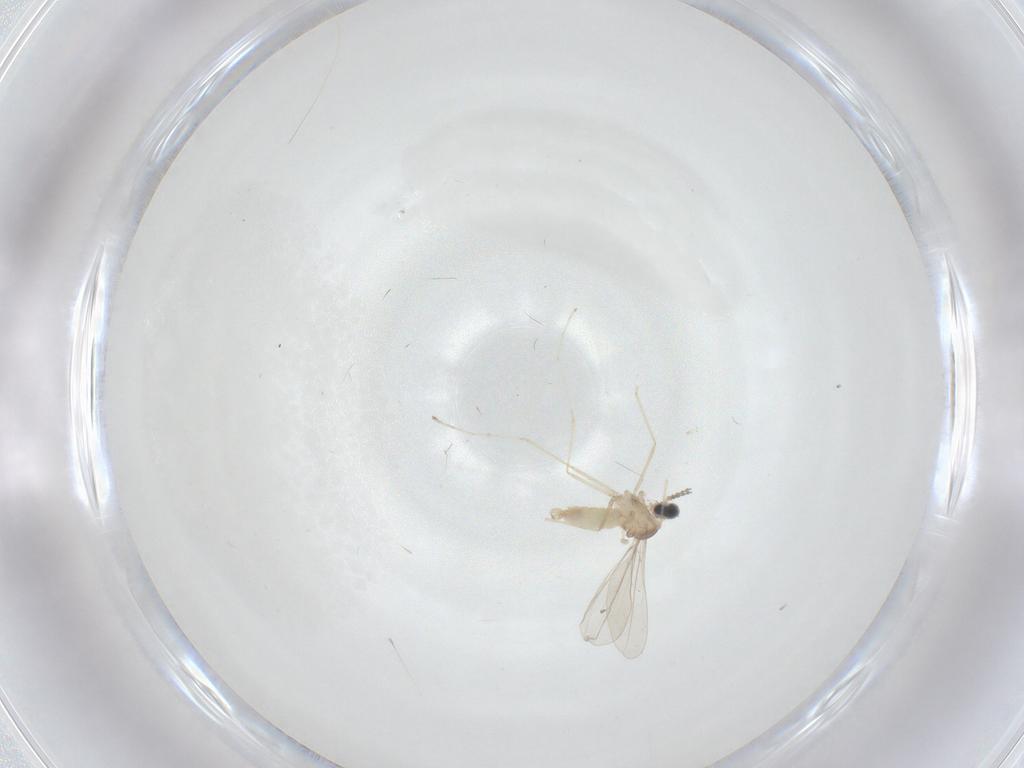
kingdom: Animalia
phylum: Arthropoda
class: Insecta
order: Diptera
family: Cecidomyiidae
